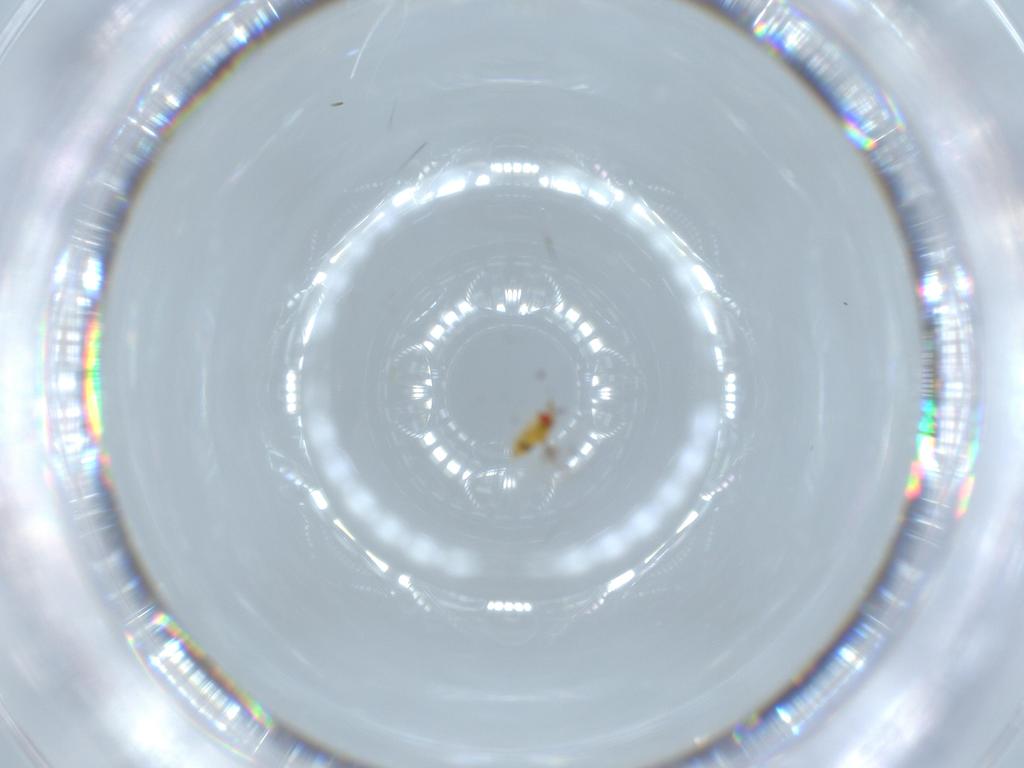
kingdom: Animalia
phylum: Arthropoda
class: Insecta
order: Hymenoptera
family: Trichogrammatidae
